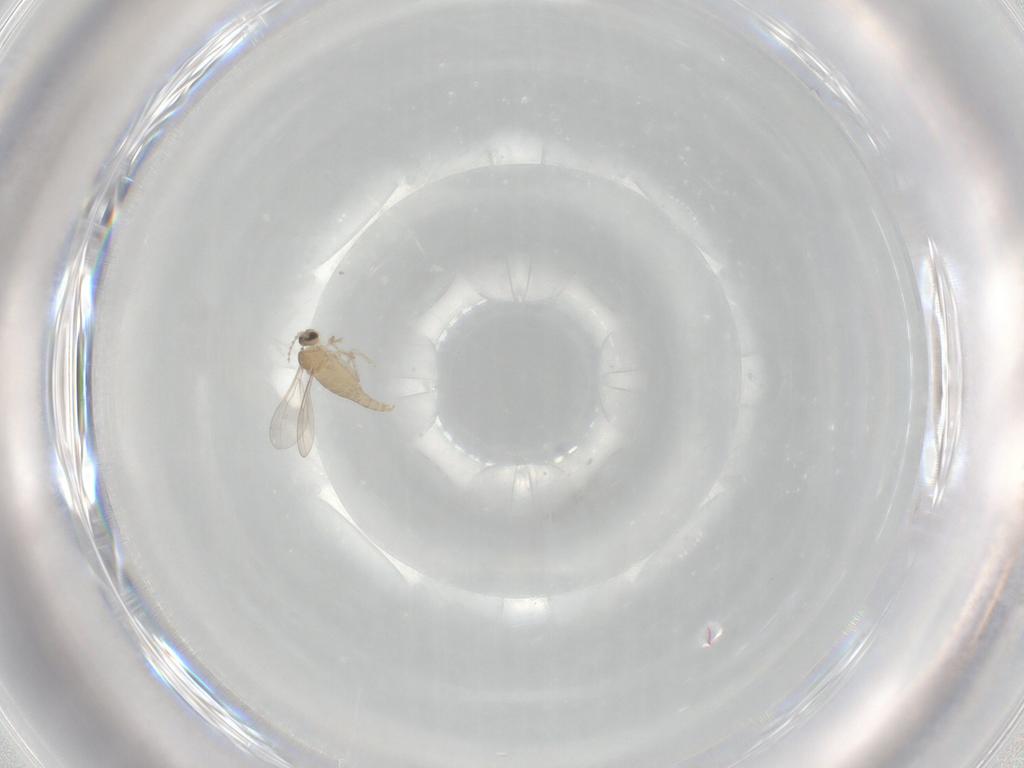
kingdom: Animalia
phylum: Arthropoda
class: Insecta
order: Diptera
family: Cecidomyiidae
